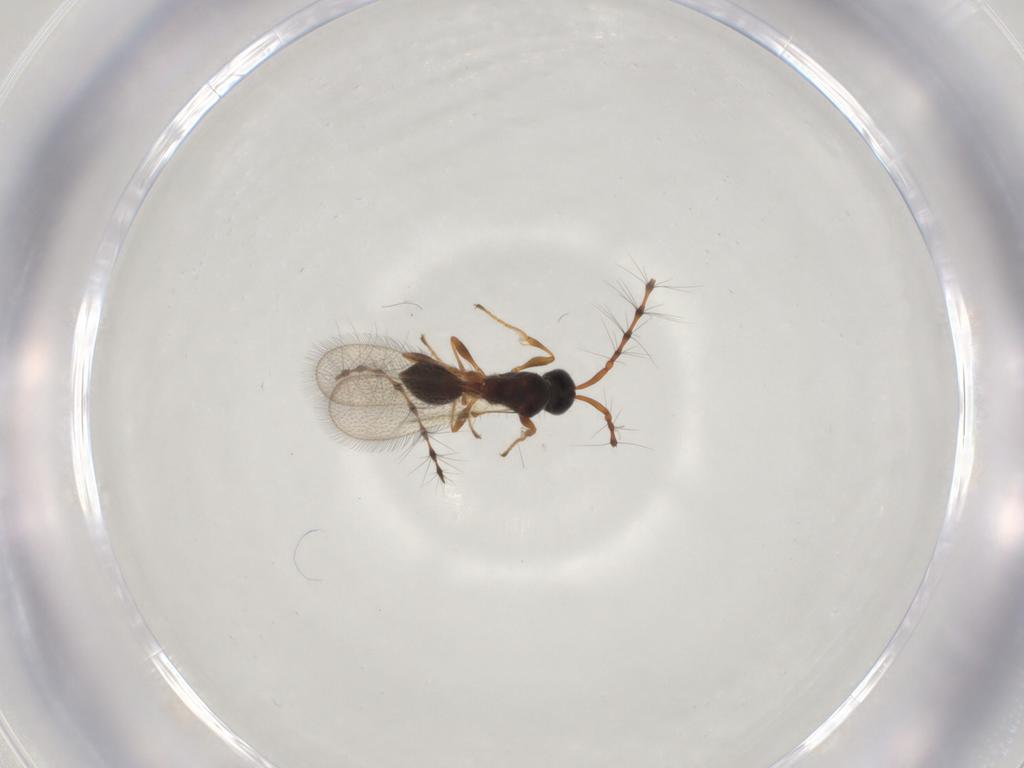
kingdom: Animalia
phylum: Arthropoda
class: Insecta
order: Hymenoptera
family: Diapriidae
